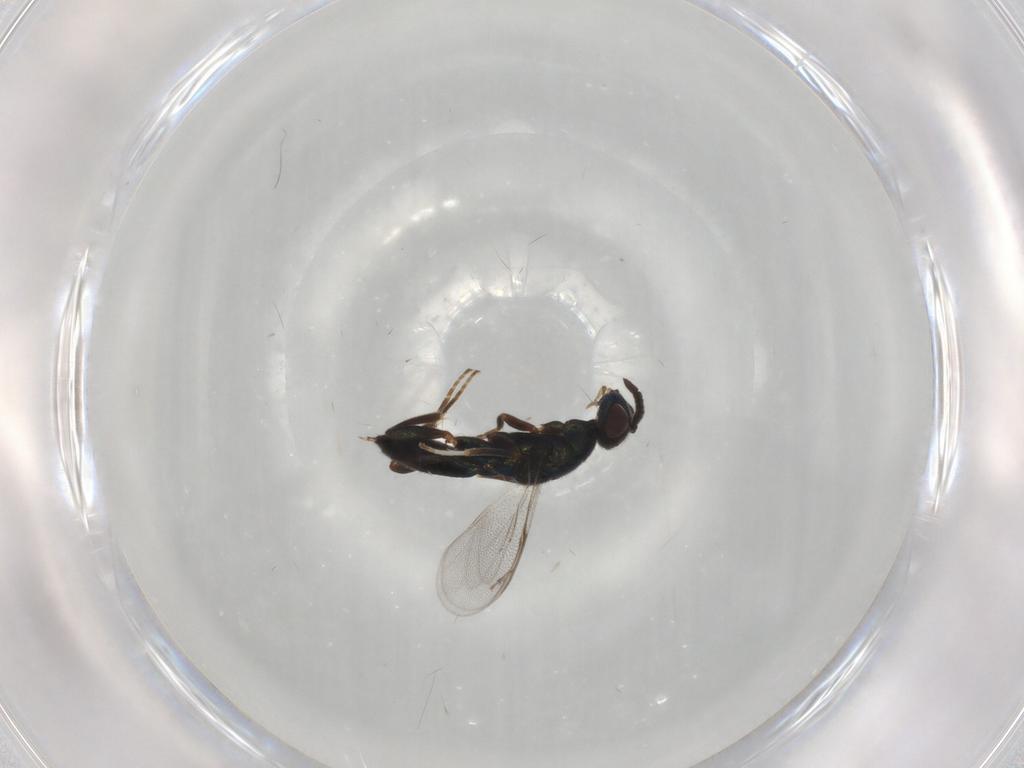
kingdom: Animalia
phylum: Arthropoda
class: Insecta
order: Hymenoptera
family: Cleonyminae
